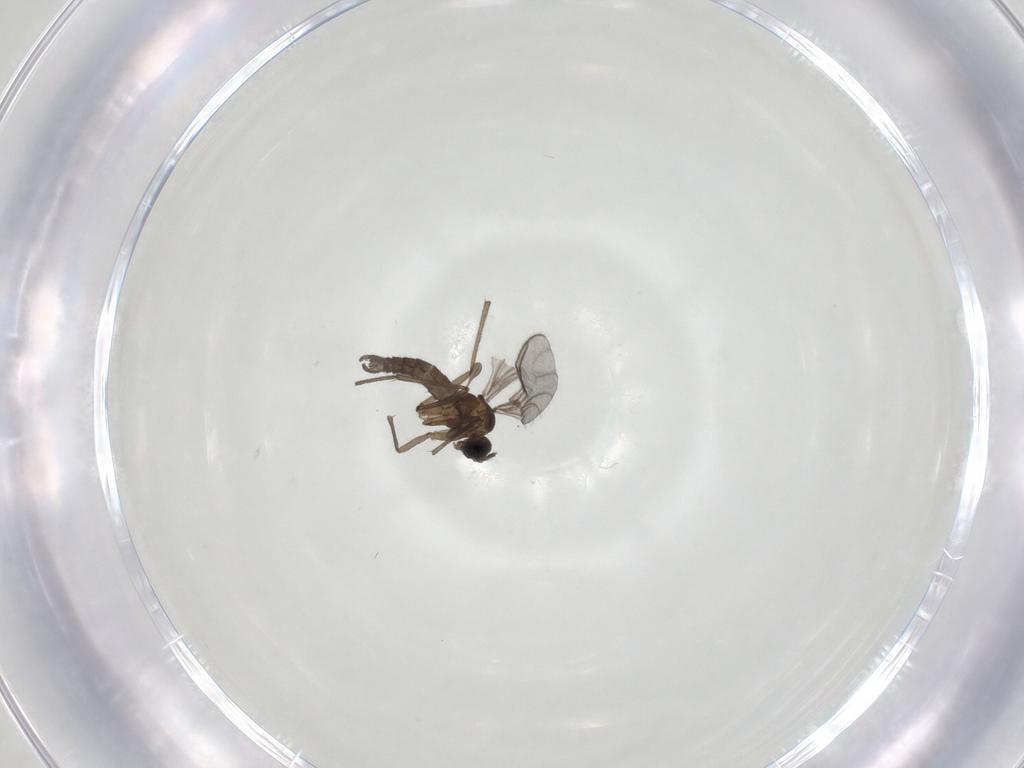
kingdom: Animalia
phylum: Arthropoda
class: Insecta
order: Diptera
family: Sciaridae
